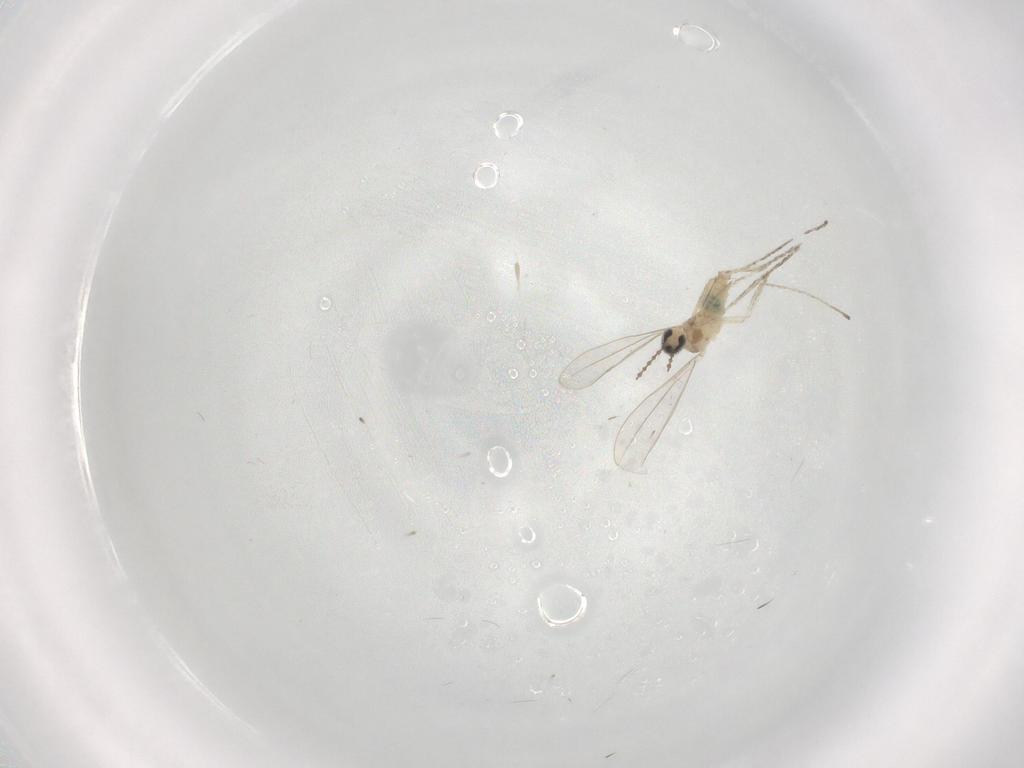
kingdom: Animalia
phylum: Arthropoda
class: Insecta
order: Diptera
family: Cecidomyiidae
